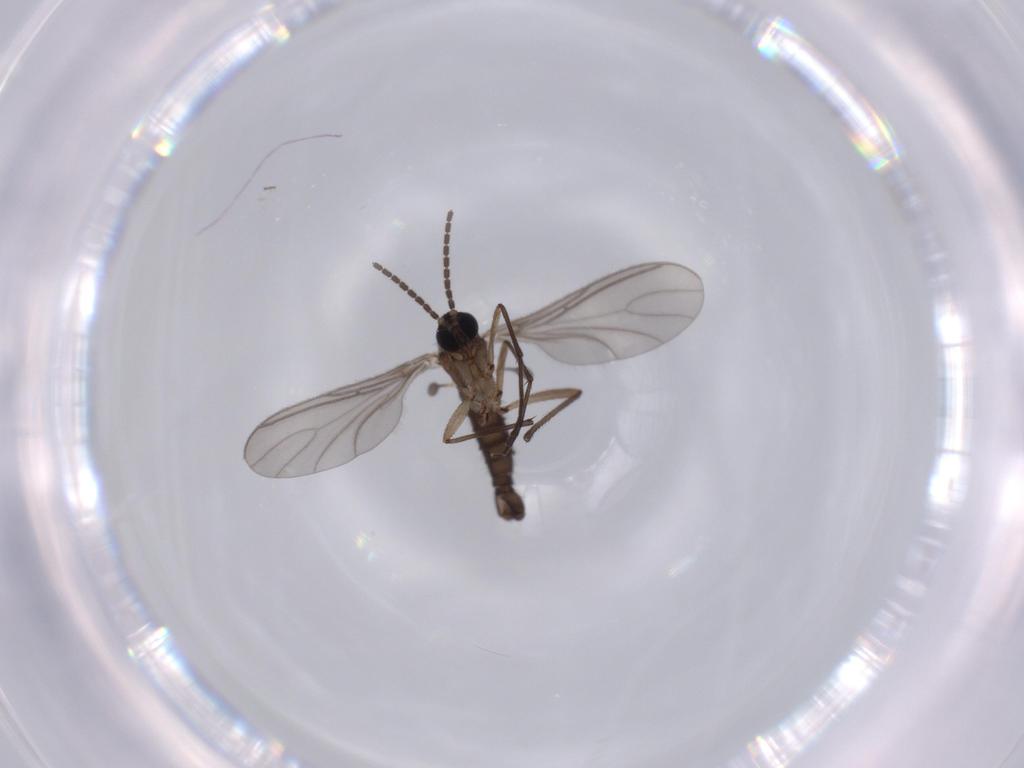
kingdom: Animalia
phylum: Arthropoda
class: Insecta
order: Diptera
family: Sciaridae
